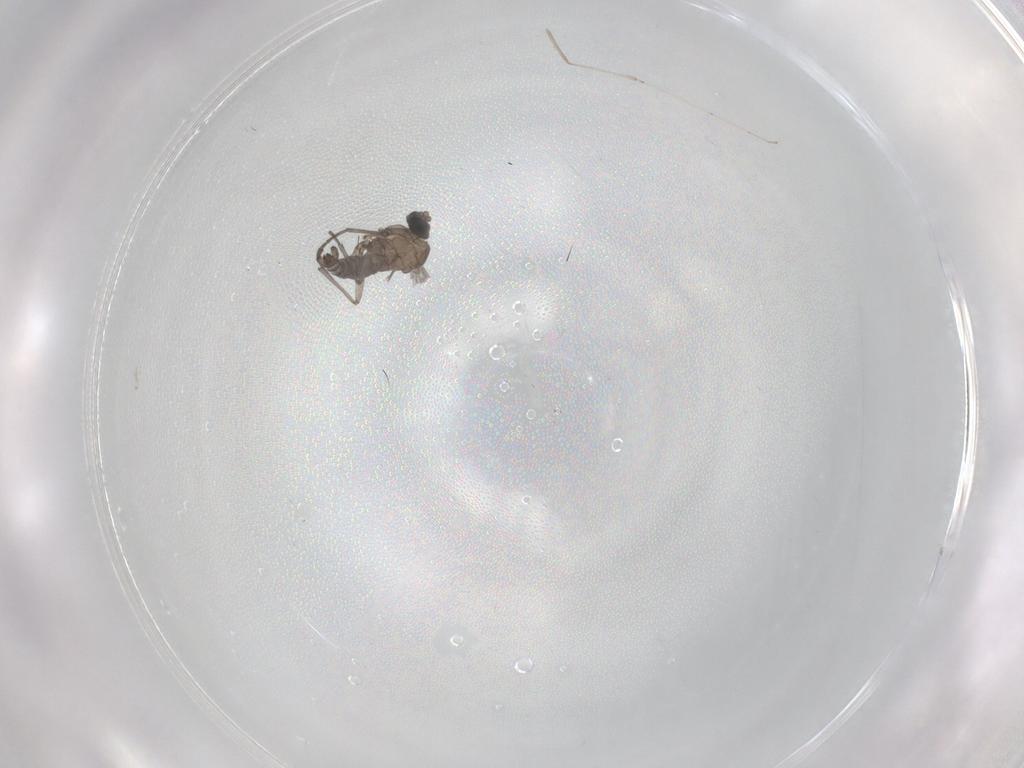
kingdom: Animalia
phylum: Arthropoda
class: Insecta
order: Diptera
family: Sciaridae
